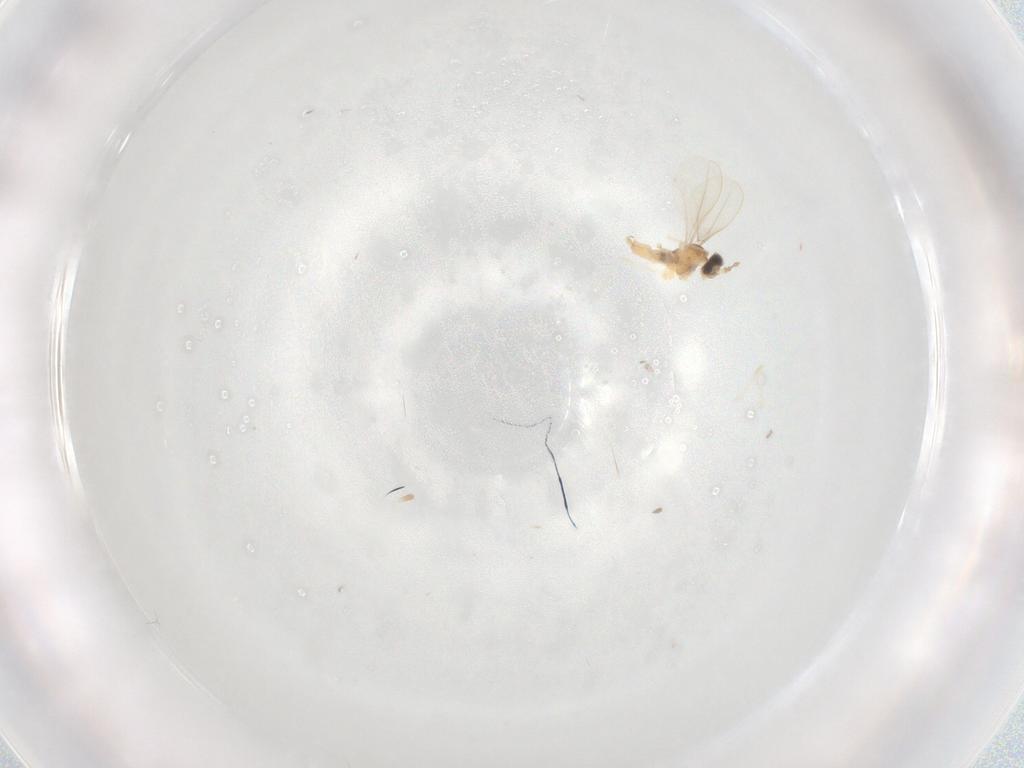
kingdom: Animalia
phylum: Arthropoda
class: Insecta
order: Diptera
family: Cecidomyiidae
